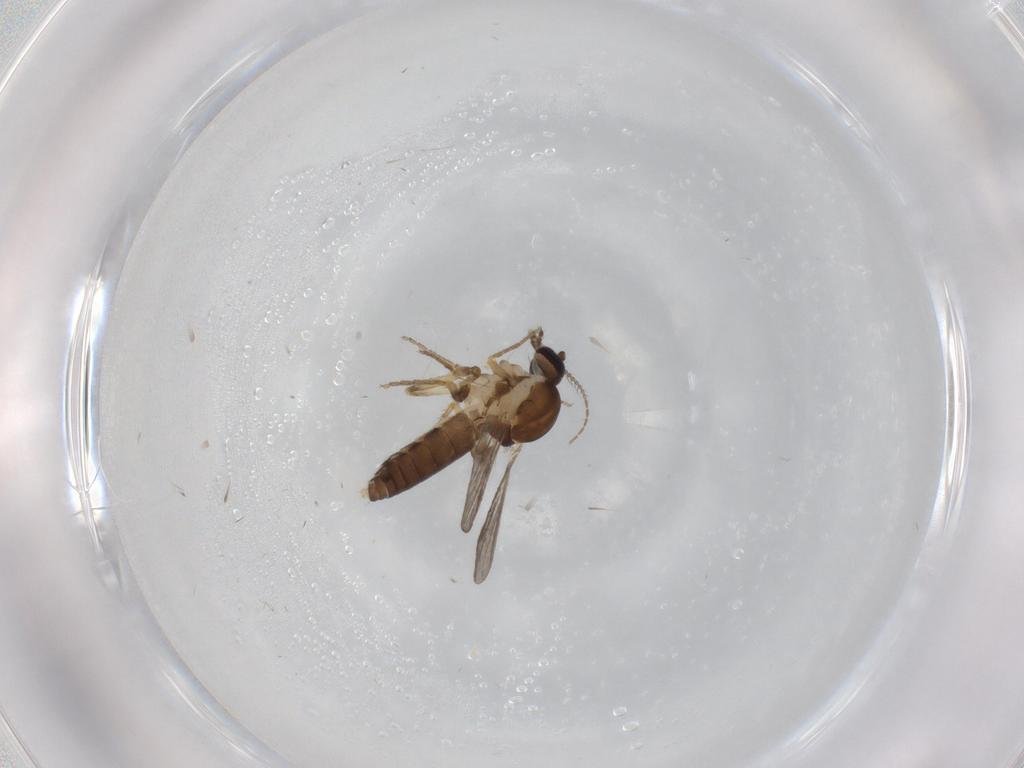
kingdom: Animalia
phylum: Arthropoda
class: Insecta
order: Diptera
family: Ceratopogonidae
